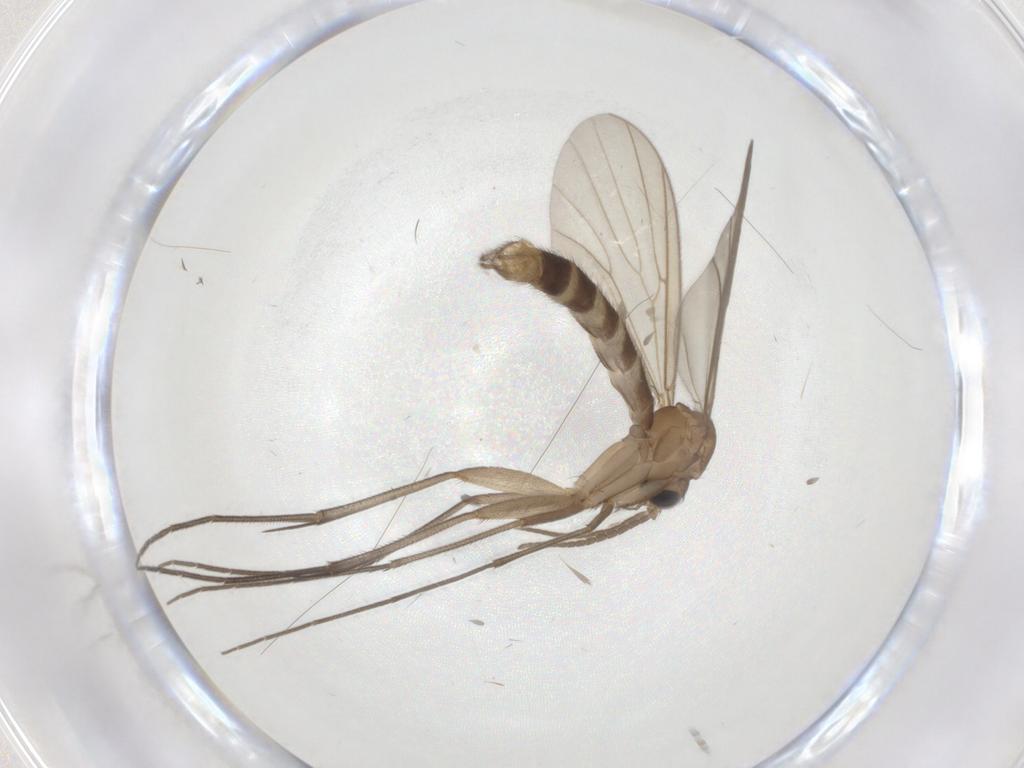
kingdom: Animalia
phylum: Arthropoda
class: Insecta
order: Diptera
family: Mycetophilidae
